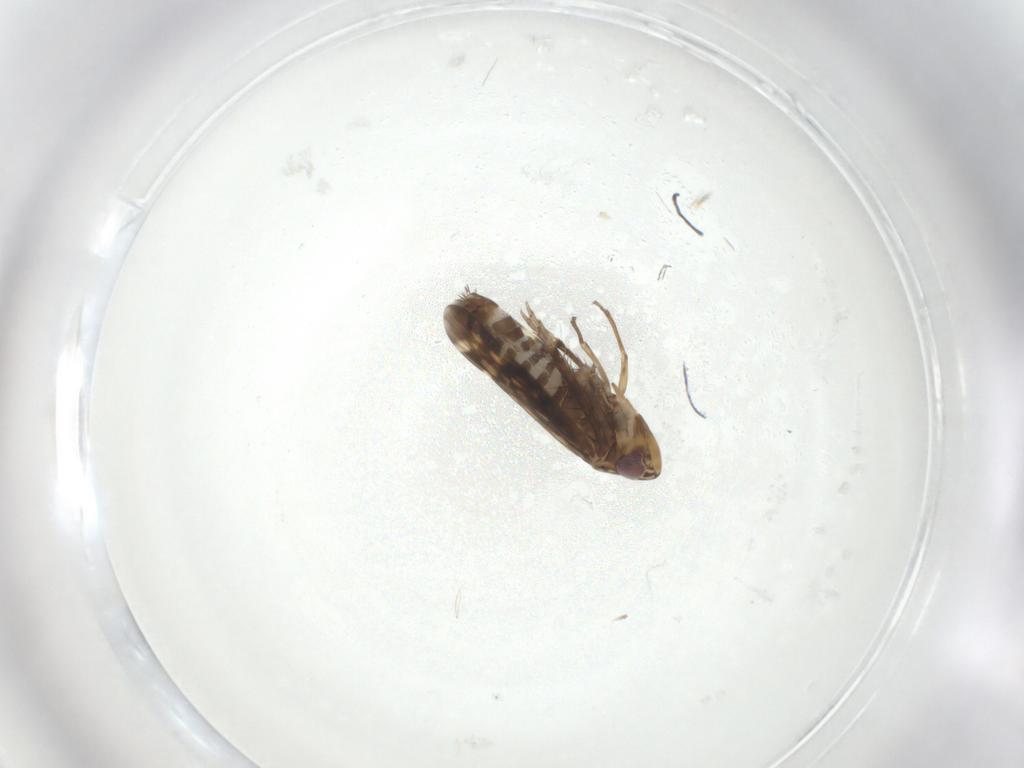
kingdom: Animalia
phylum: Arthropoda
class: Insecta
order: Hemiptera
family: Cicadellidae
